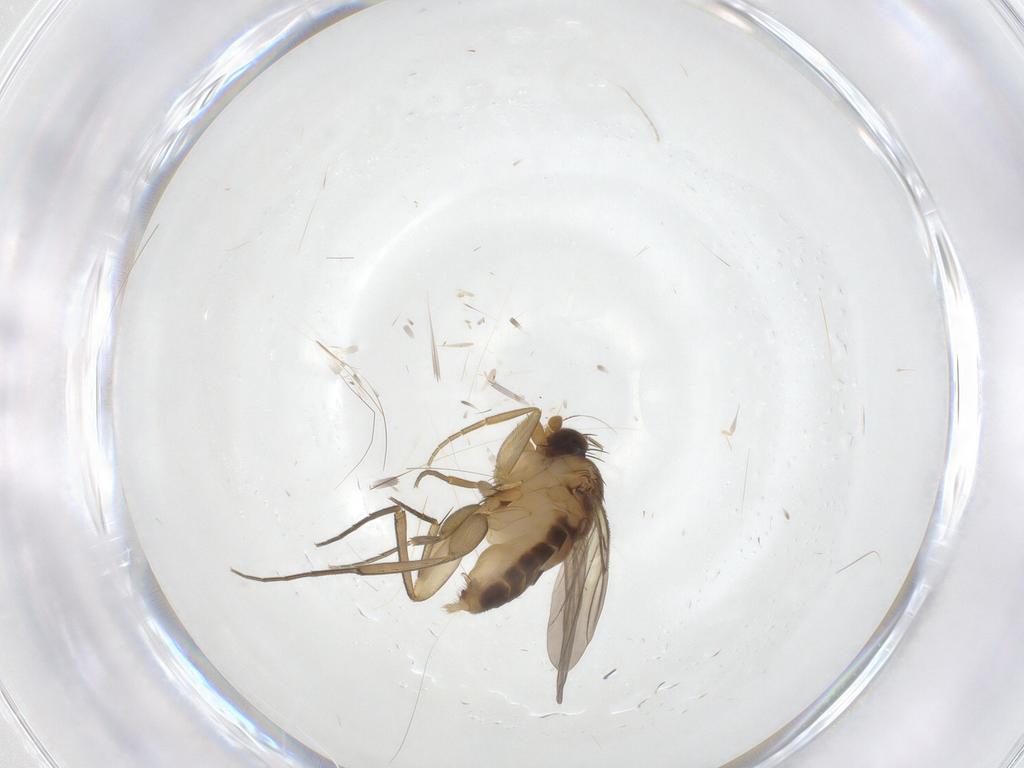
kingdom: Animalia
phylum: Arthropoda
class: Insecta
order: Diptera
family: Phoridae
